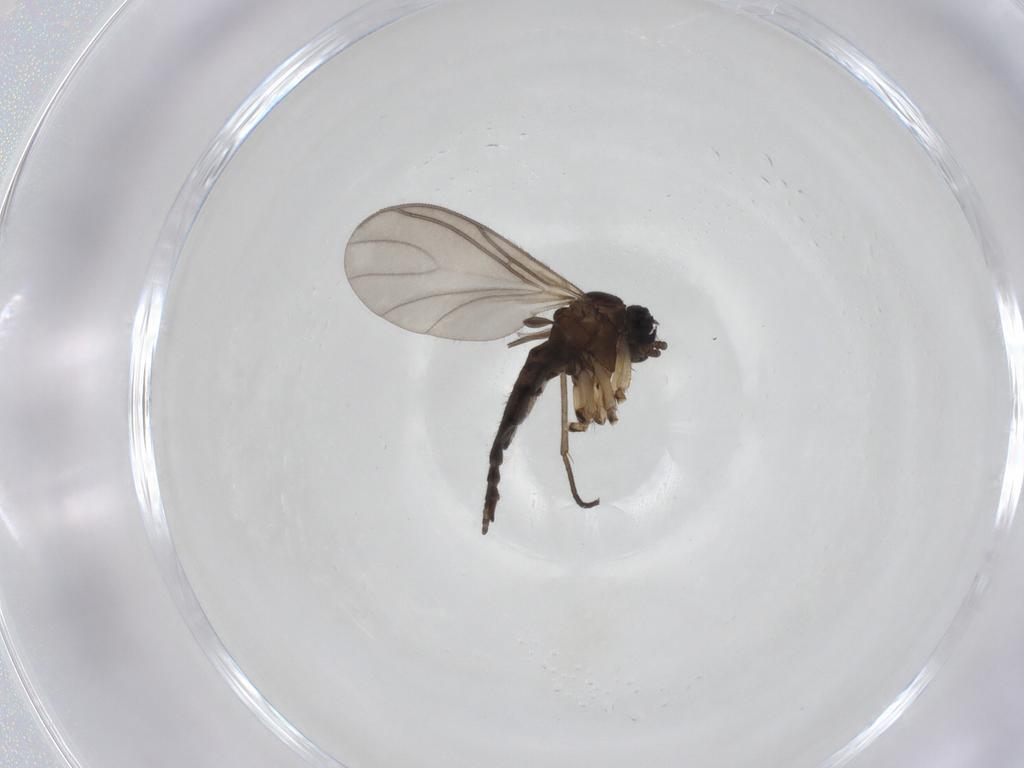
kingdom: Animalia
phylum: Arthropoda
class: Insecta
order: Diptera
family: Sciaridae
